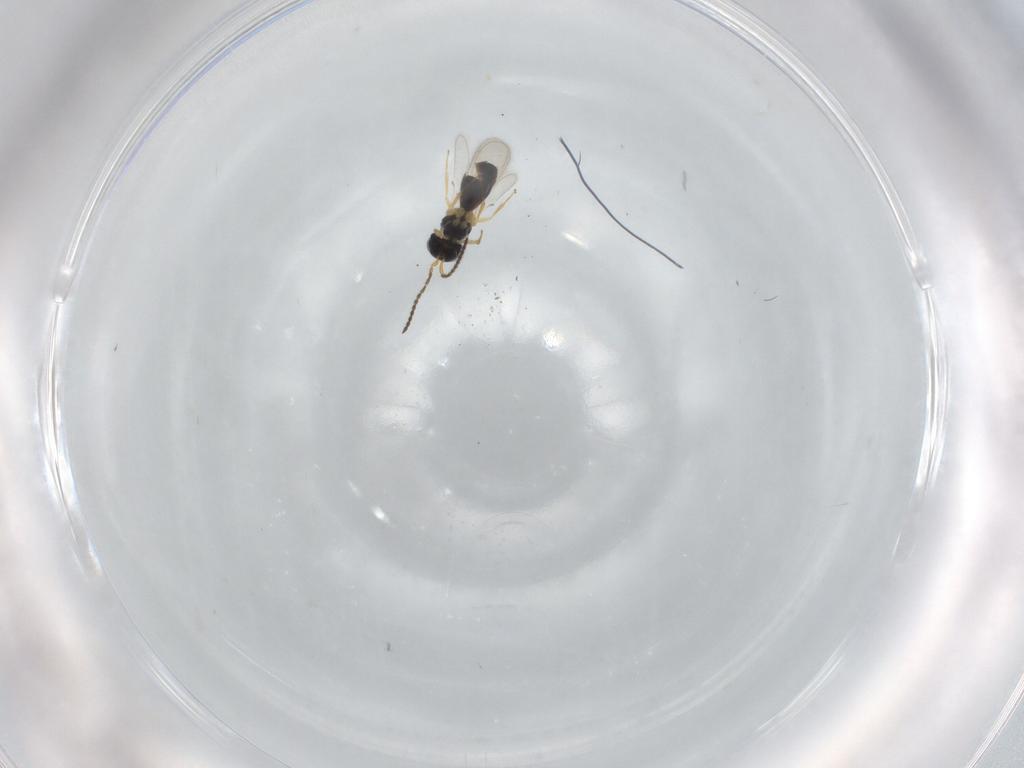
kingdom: Animalia
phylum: Arthropoda
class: Insecta
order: Hymenoptera
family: Scelionidae
